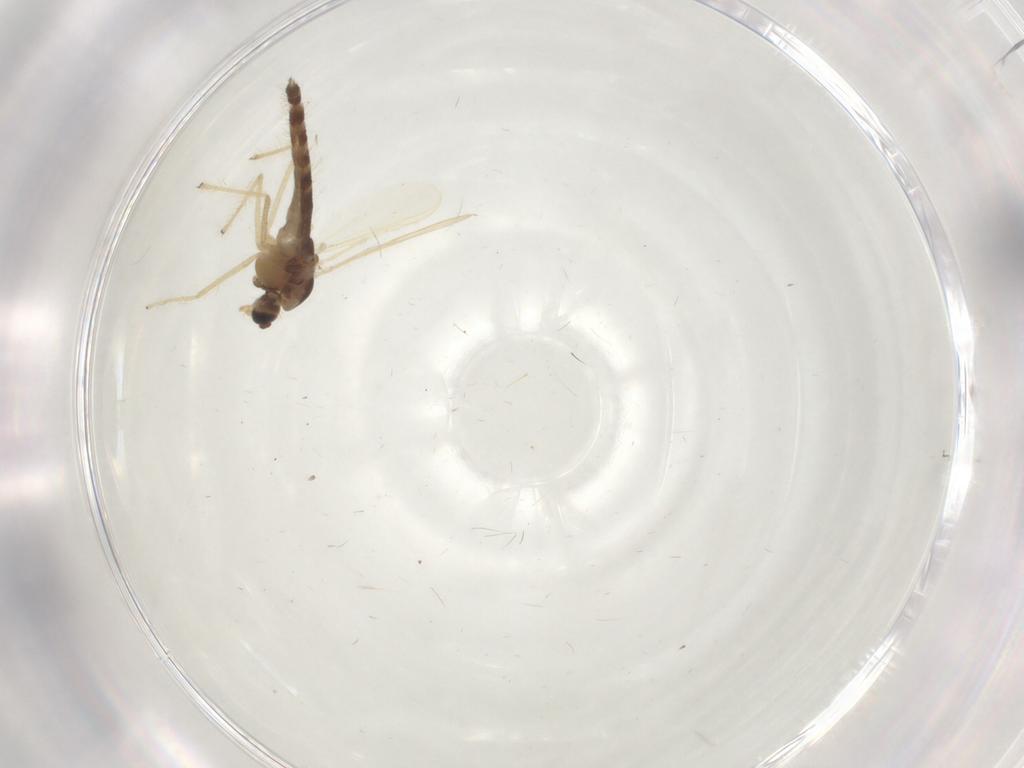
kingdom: Animalia
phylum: Arthropoda
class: Insecta
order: Diptera
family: Chironomidae
